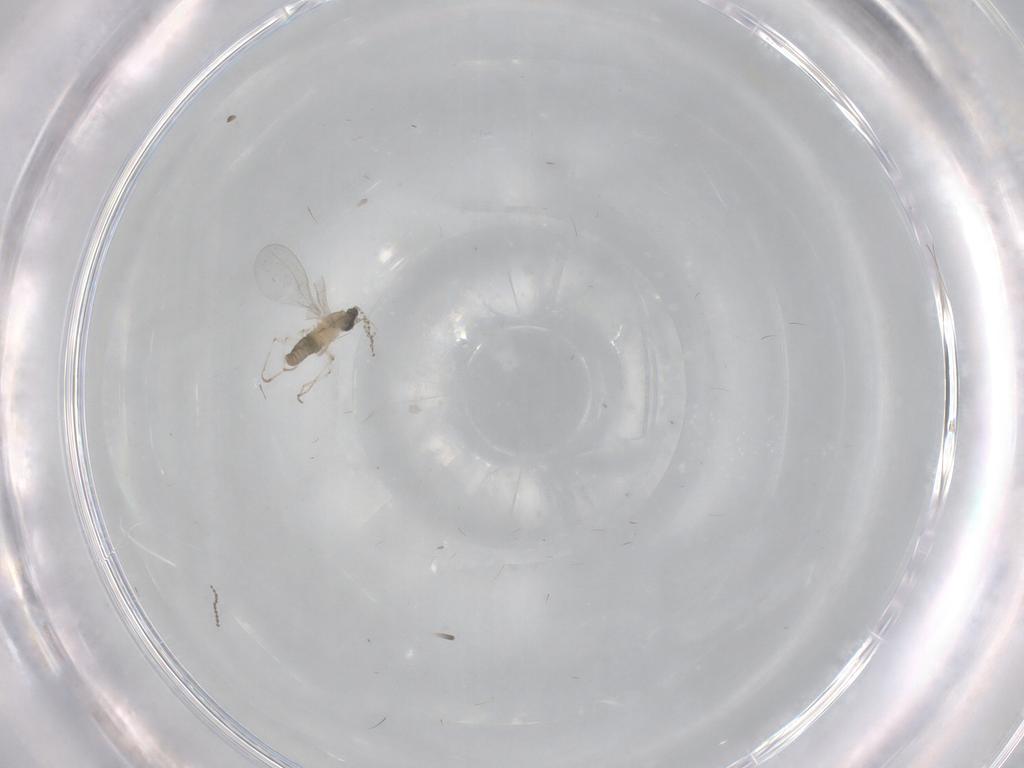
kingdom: Animalia
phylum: Arthropoda
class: Insecta
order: Diptera
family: Cecidomyiidae
